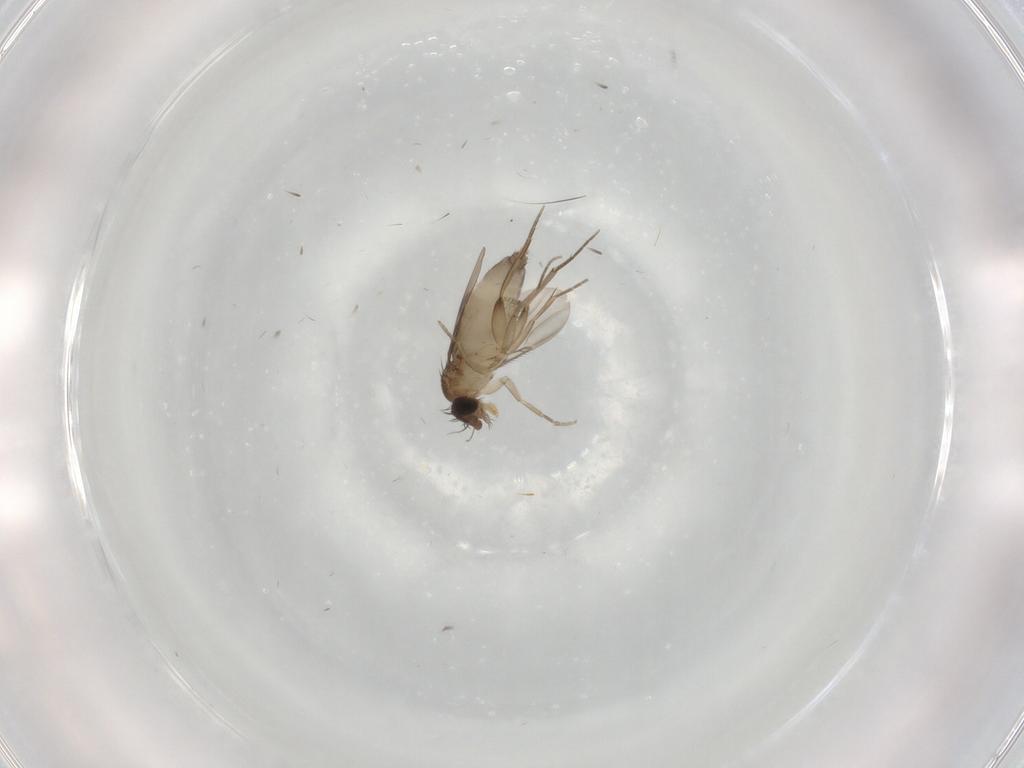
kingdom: Animalia
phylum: Arthropoda
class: Insecta
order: Diptera
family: Phoridae
